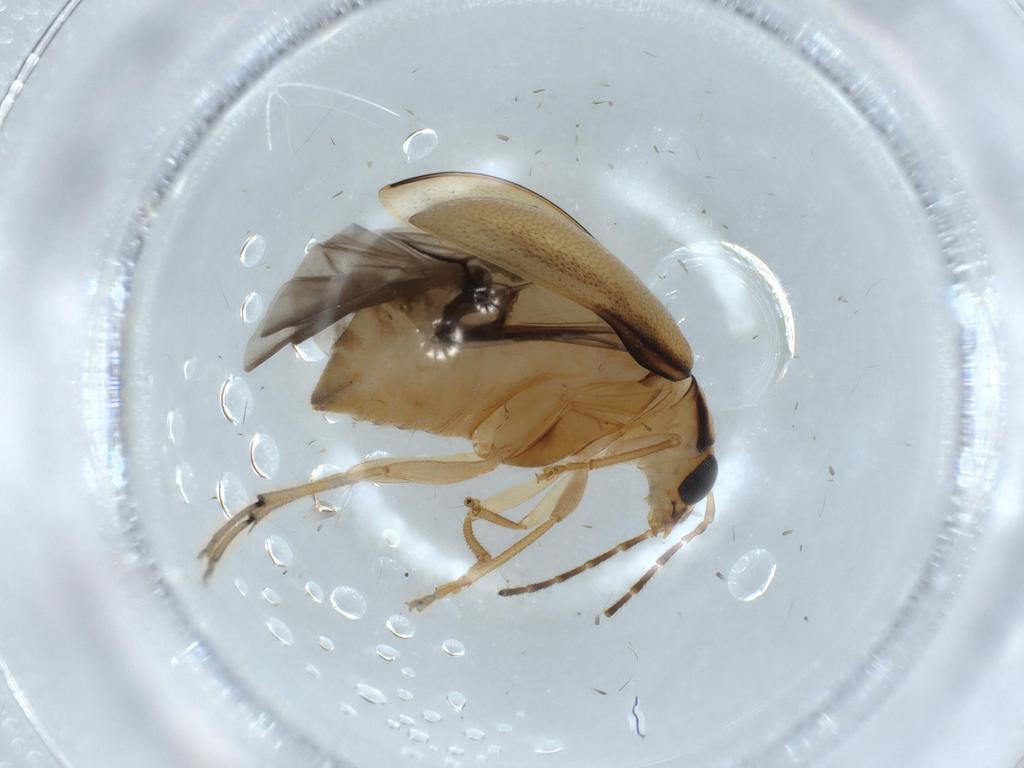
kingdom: Animalia
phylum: Arthropoda
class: Insecta
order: Coleoptera
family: Chrysomelidae
